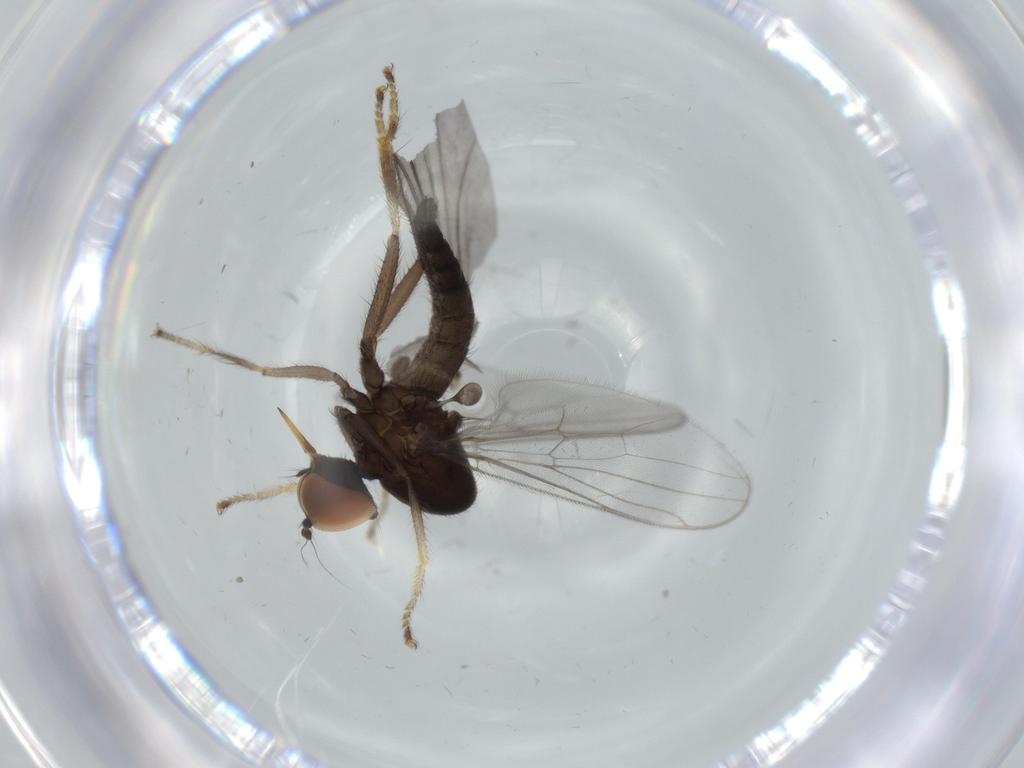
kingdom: Animalia
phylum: Arthropoda
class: Insecta
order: Diptera
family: Hybotidae
